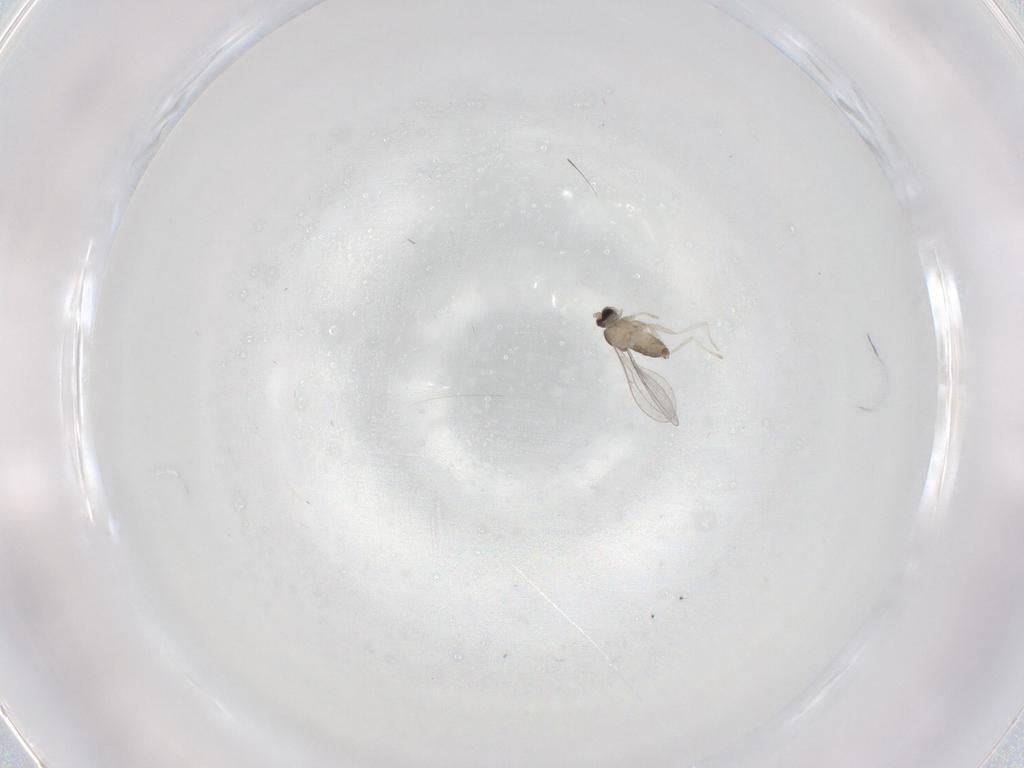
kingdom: Animalia
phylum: Arthropoda
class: Insecta
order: Diptera
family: Cecidomyiidae
